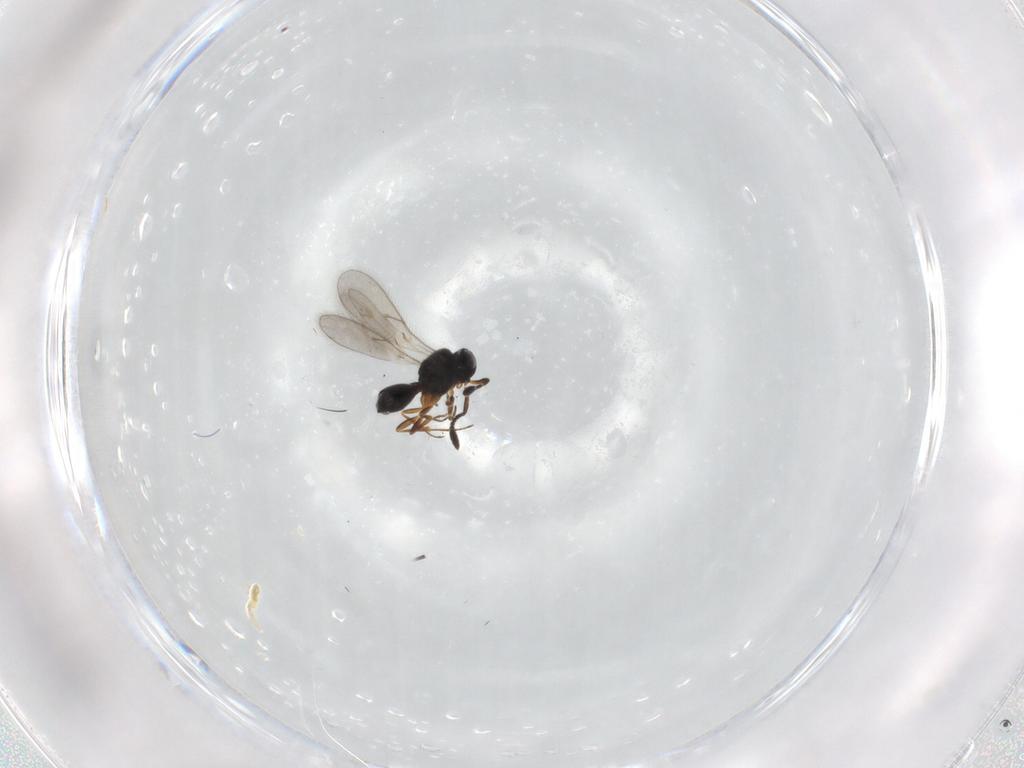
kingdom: Animalia
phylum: Arthropoda
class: Insecta
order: Hymenoptera
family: Scelionidae
